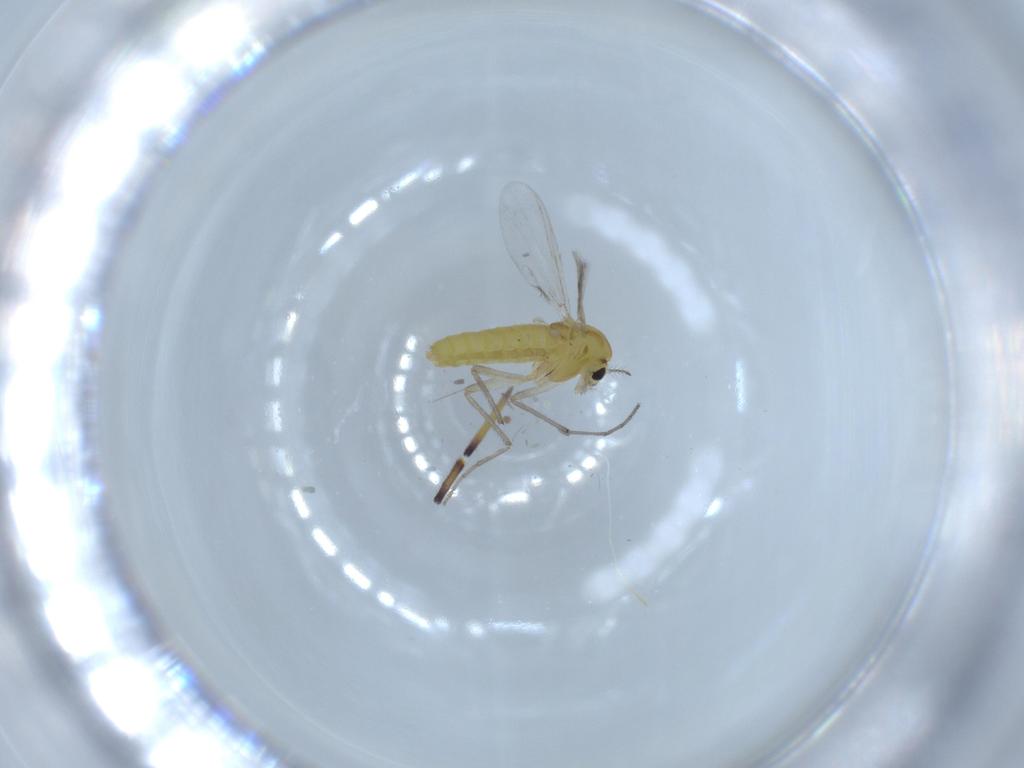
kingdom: Animalia
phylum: Arthropoda
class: Insecta
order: Diptera
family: Chironomidae
